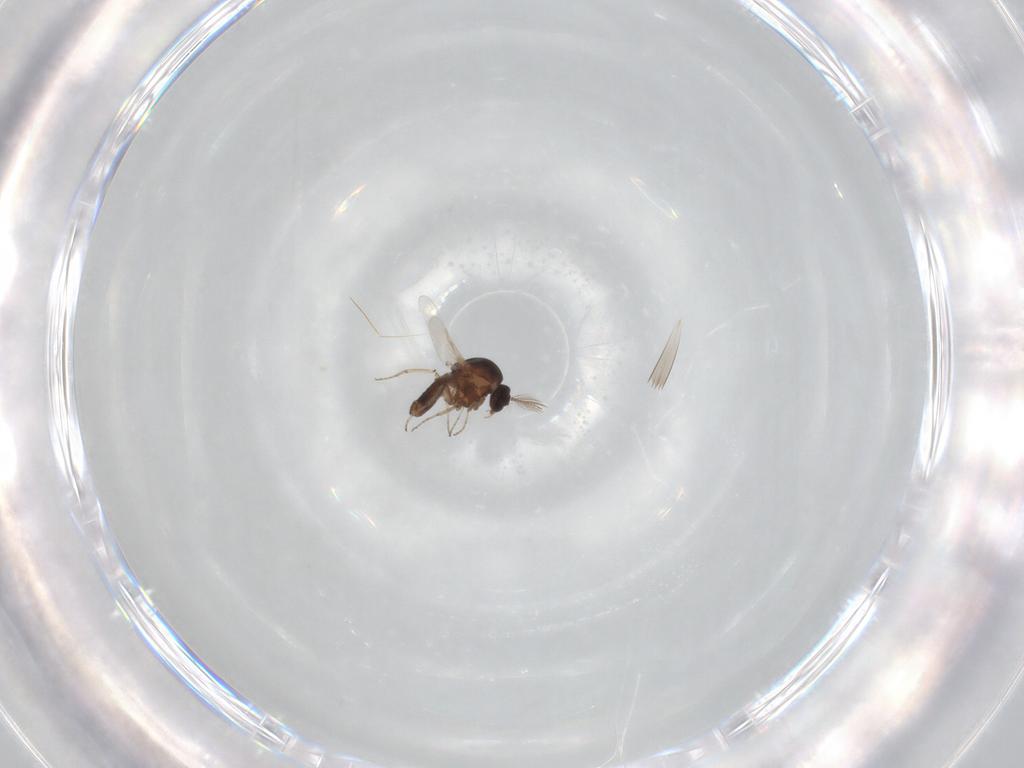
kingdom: Animalia
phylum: Arthropoda
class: Insecta
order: Diptera
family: Ceratopogonidae
